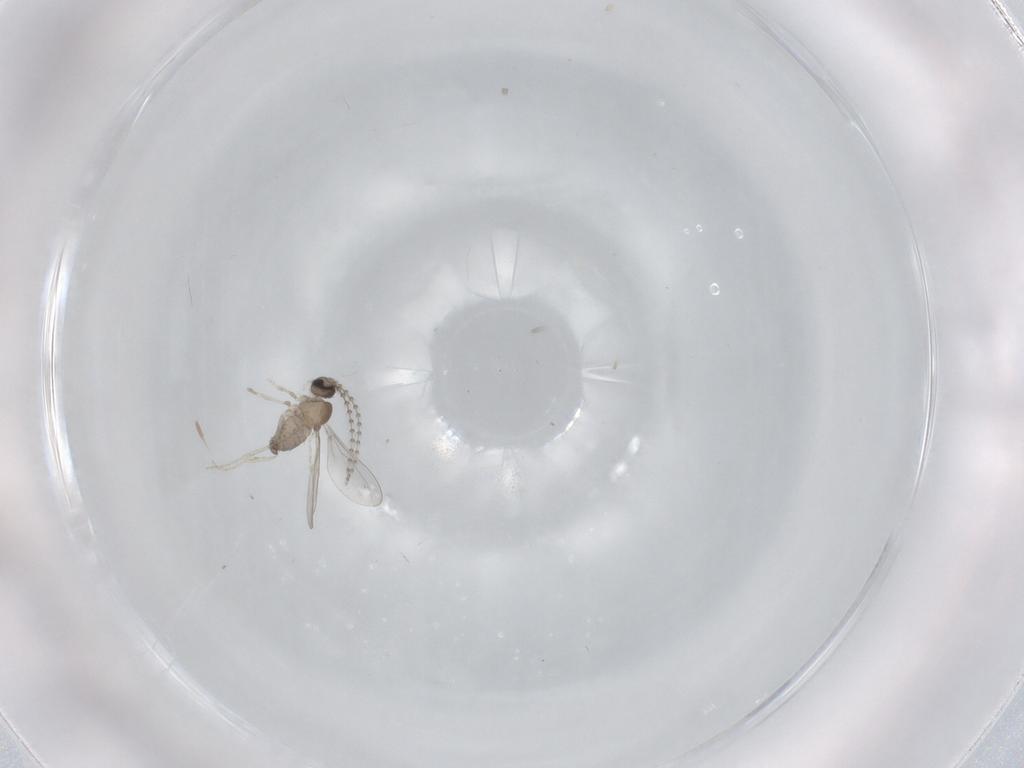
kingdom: Animalia
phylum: Arthropoda
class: Insecta
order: Diptera
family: Cecidomyiidae
